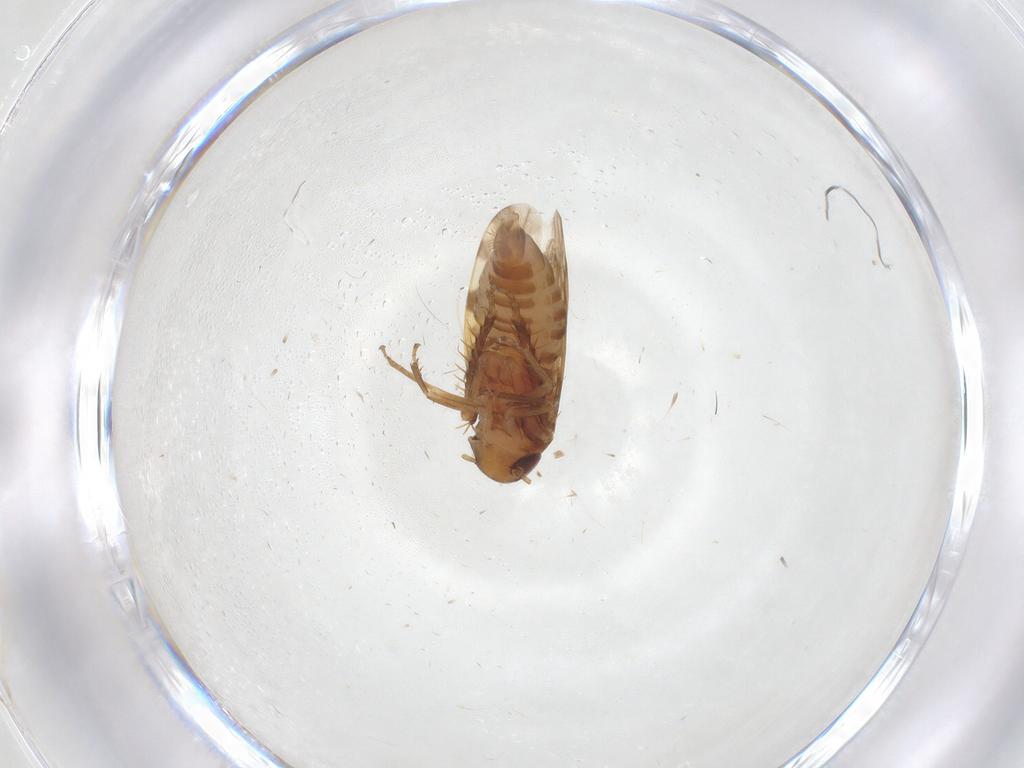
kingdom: Animalia
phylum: Arthropoda
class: Insecta
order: Hemiptera
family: Cicadellidae
